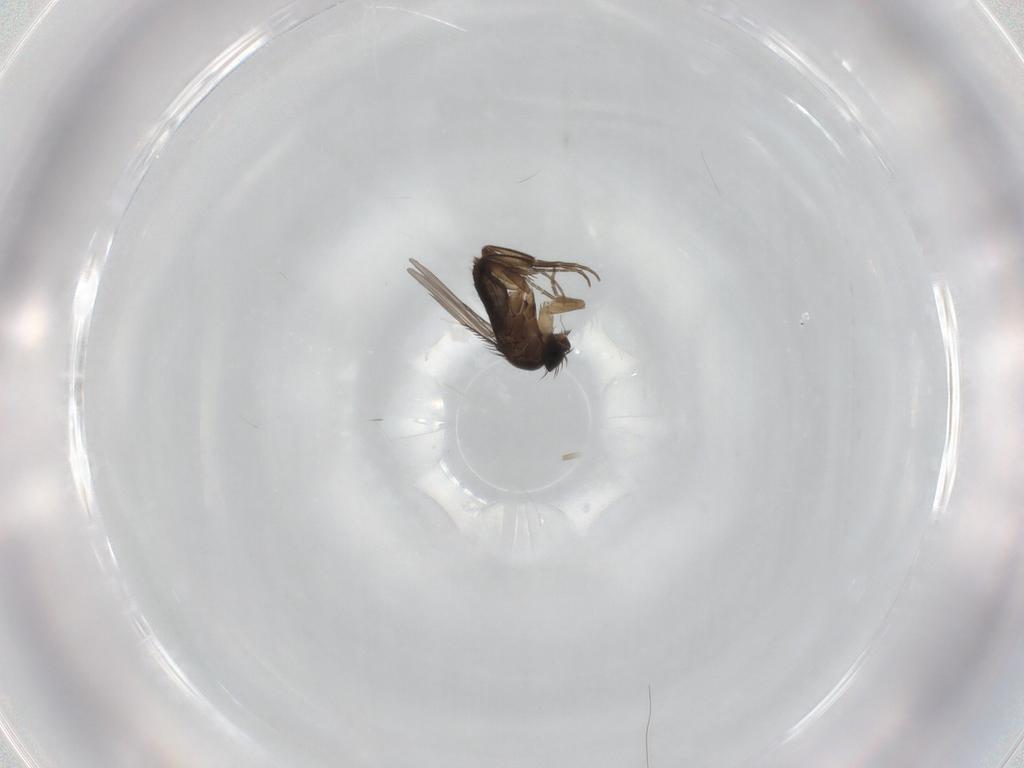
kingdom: Animalia
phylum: Arthropoda
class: Insecta
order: Diptera
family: Phoridae
